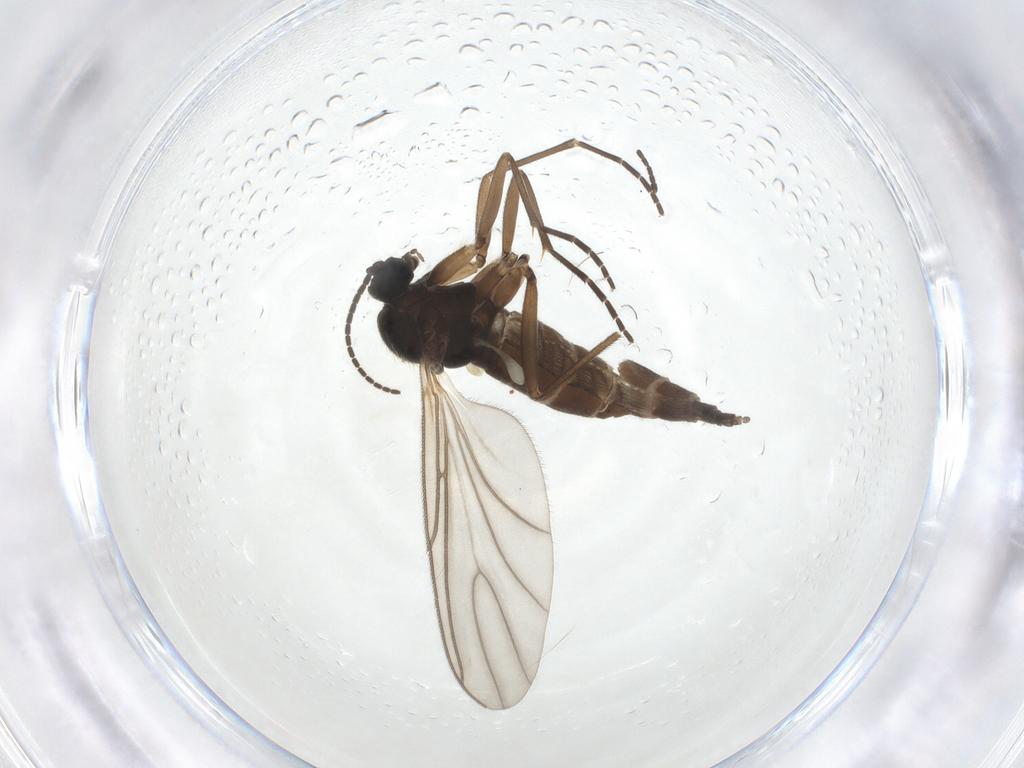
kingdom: Animalia
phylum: Arthropoda
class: Insecta
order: Diptera
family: Sciaridae
